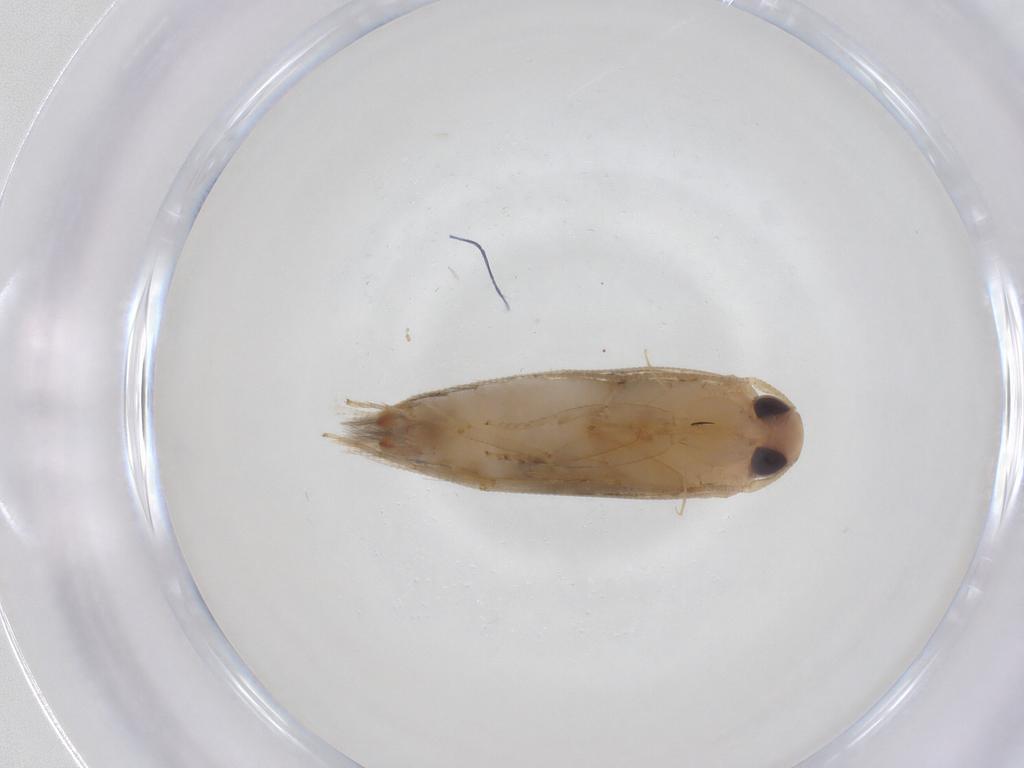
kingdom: Animalia
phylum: Arthropoda
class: Insecta
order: Lepidoptera
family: Cosmopterigidae
